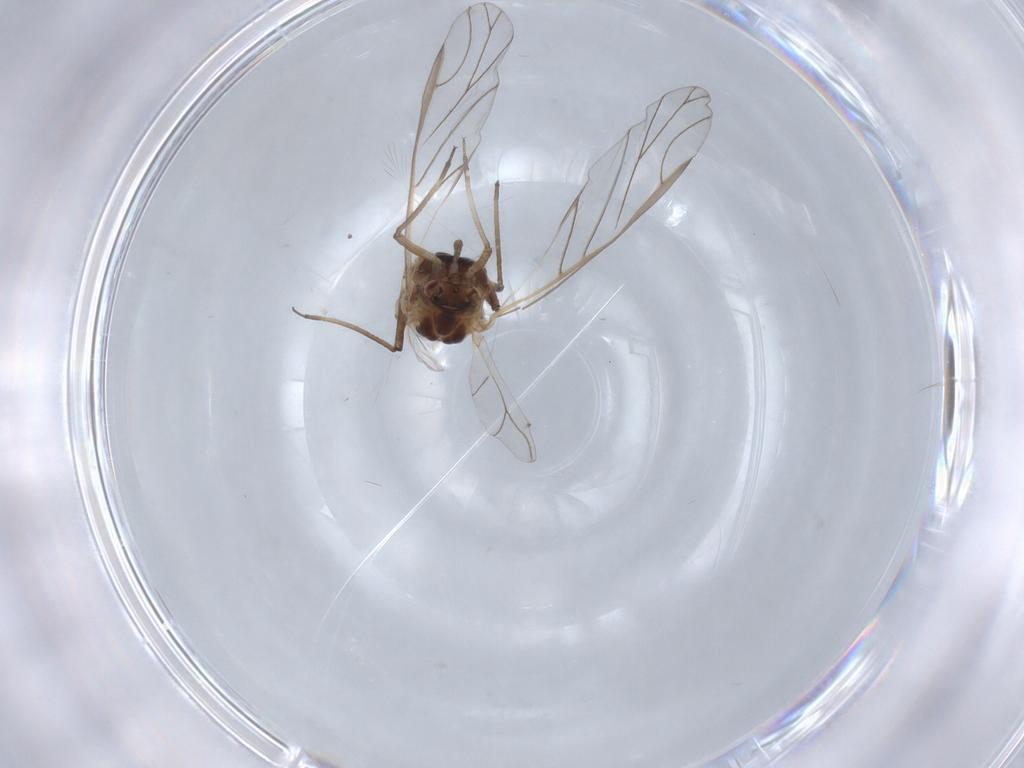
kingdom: Animalia
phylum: Arthropoda
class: Insecta
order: Hemiptera
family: Aphididae
